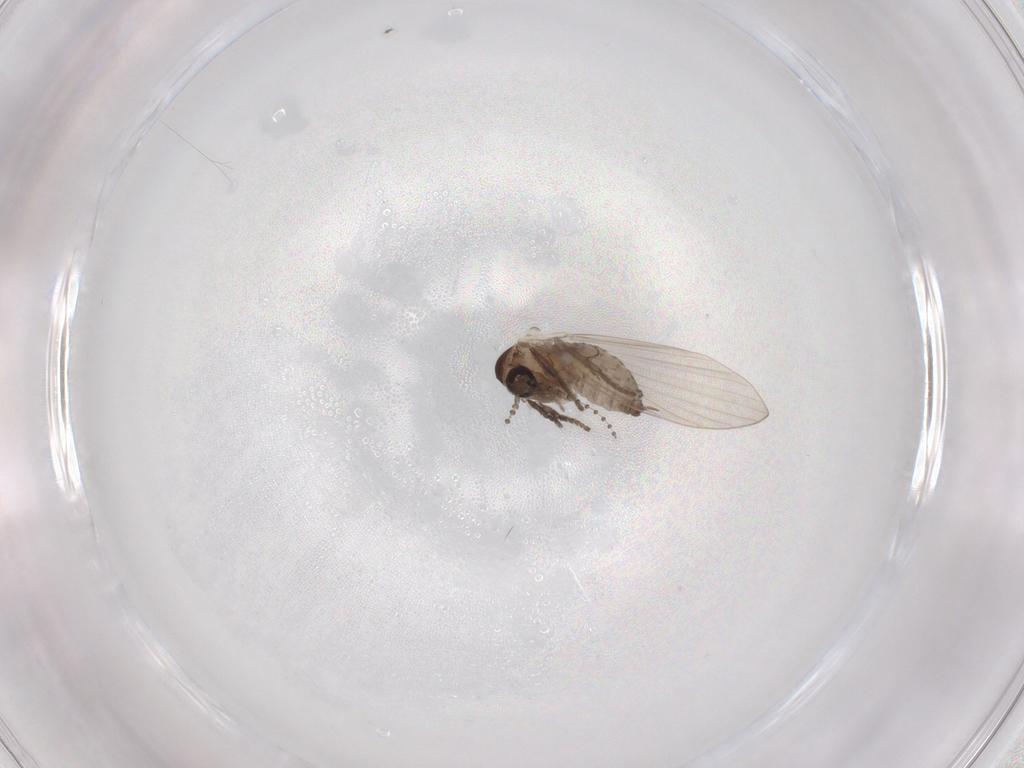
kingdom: Animalia
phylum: Arthropoda
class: Insecta
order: Diptera
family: Psychodidae
